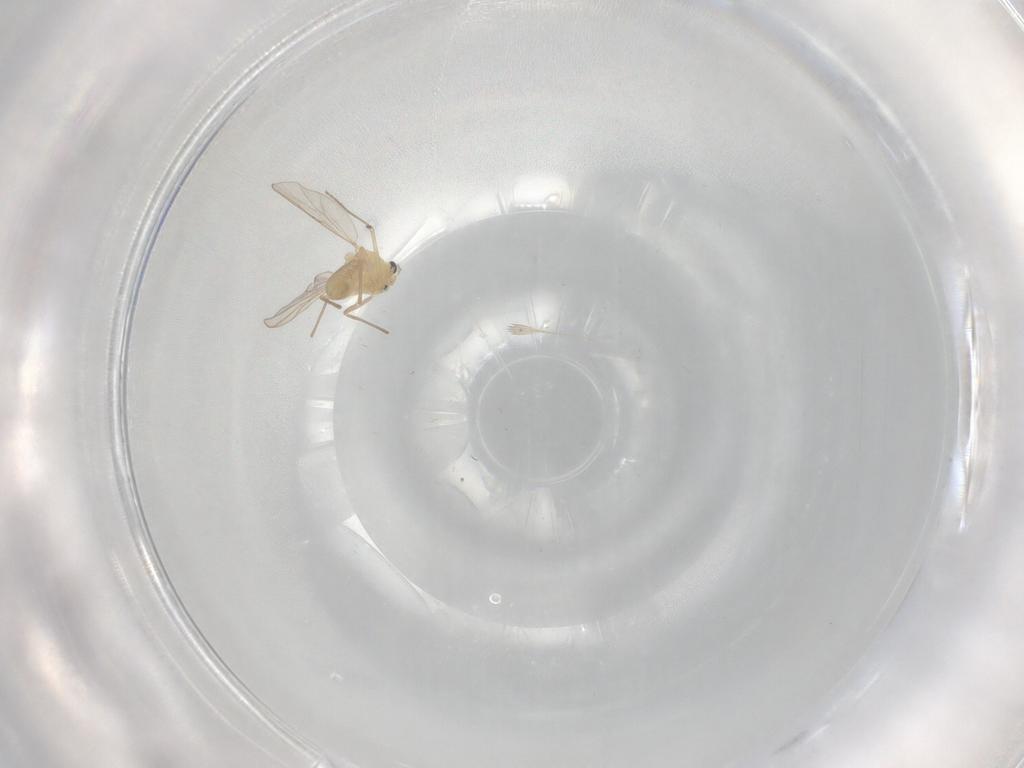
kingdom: Animalia
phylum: Arthropoda
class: Insecta
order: Diptera
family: Chironomidae
